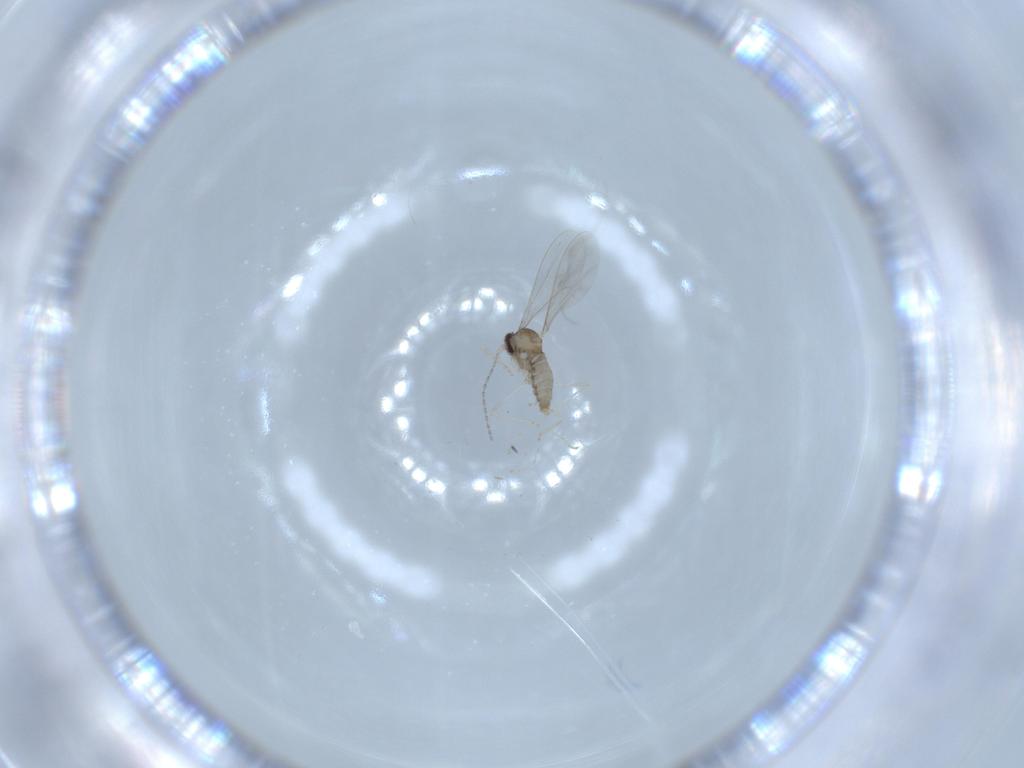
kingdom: Animalia
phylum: Arthropoda
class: Insecta
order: Diptera
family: Cecidomyiidae
